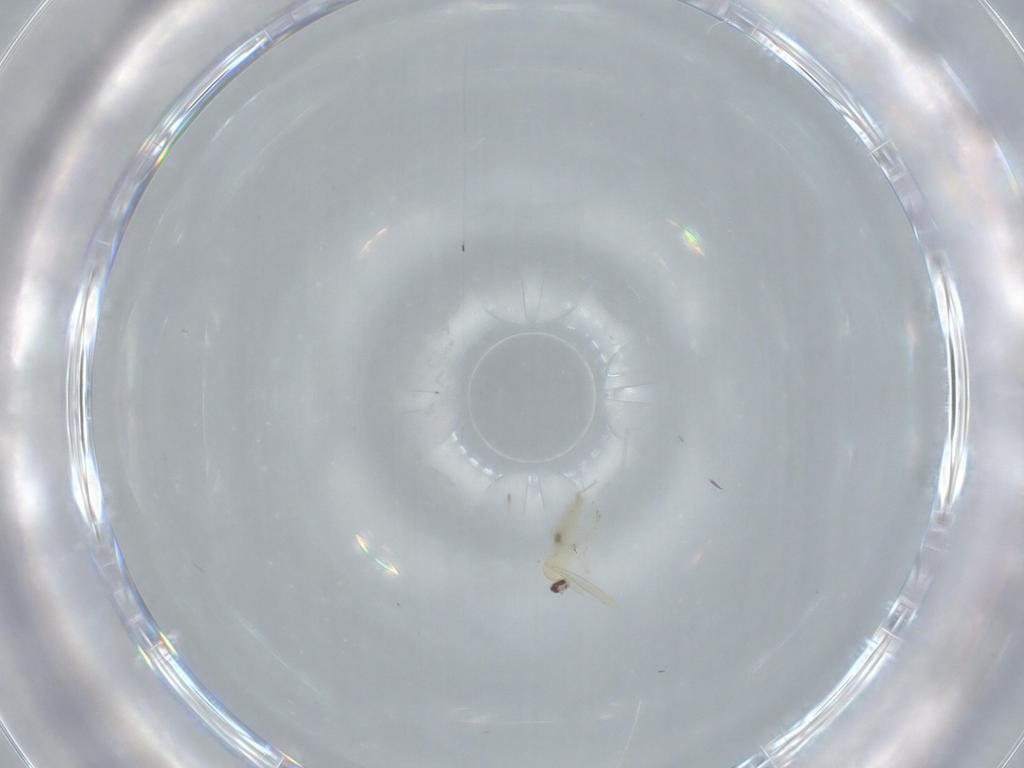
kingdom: Animalia
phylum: Arthropoda
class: Insecta
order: Diptera
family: Cecidomyiidae
